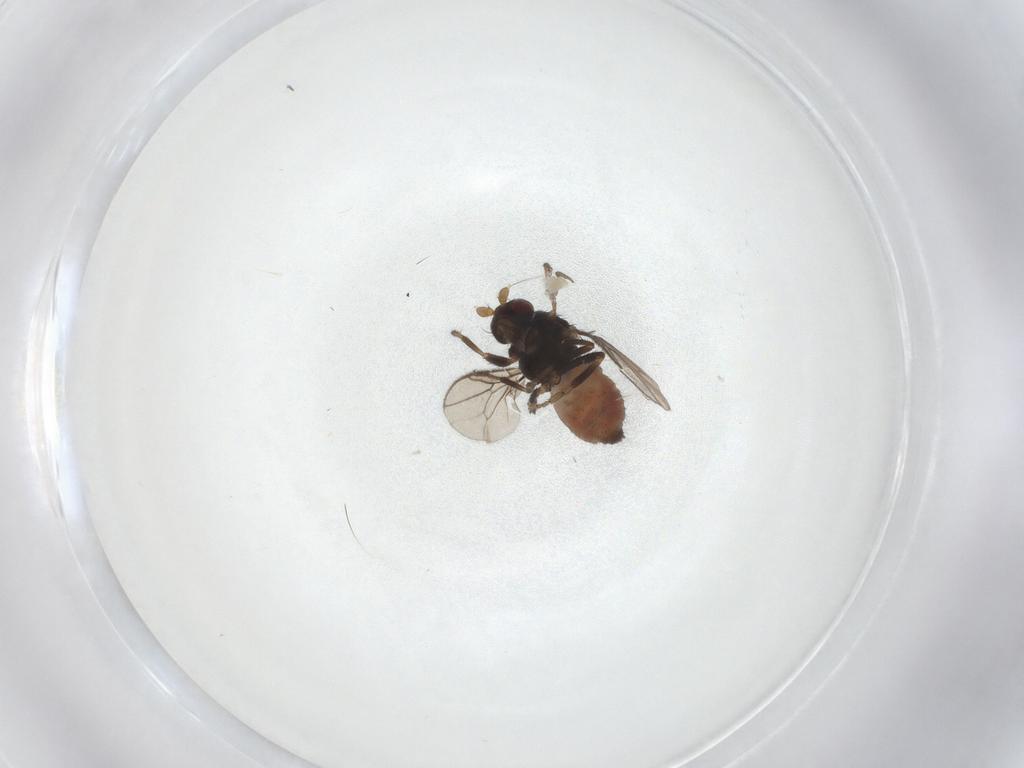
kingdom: Animalia
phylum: Arthropoda
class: Insecta
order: Diptera
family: Sphaeroceridae
